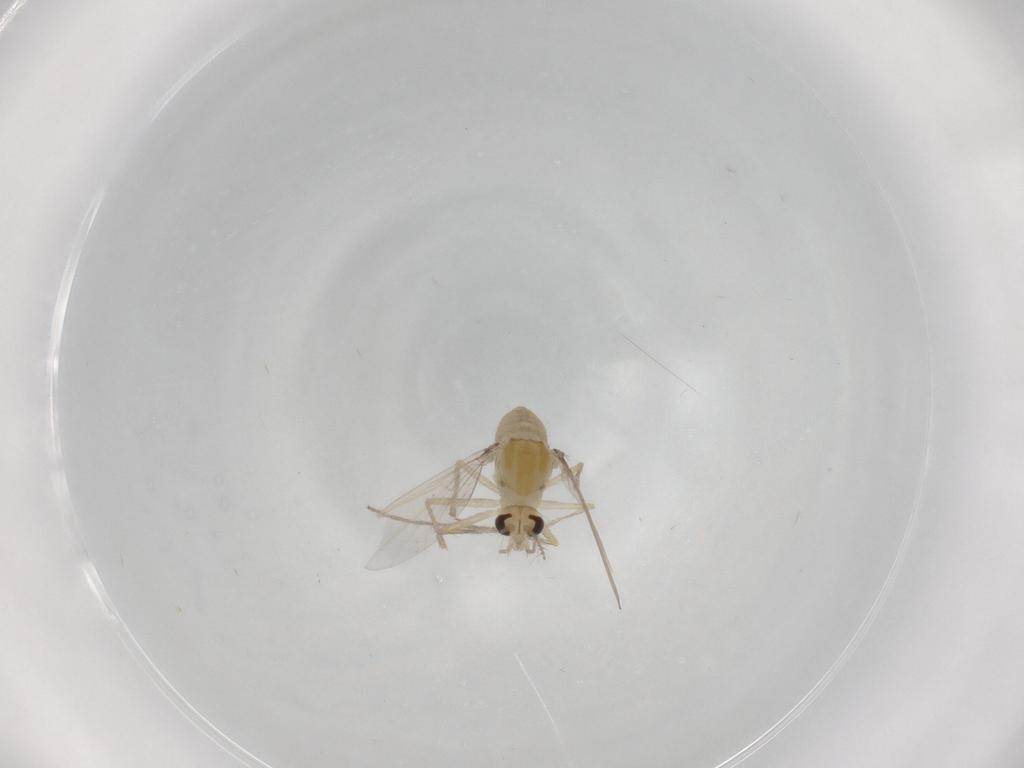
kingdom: Animalia
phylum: Arthropoda
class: Insecta
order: Diptera
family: Chironomidae
